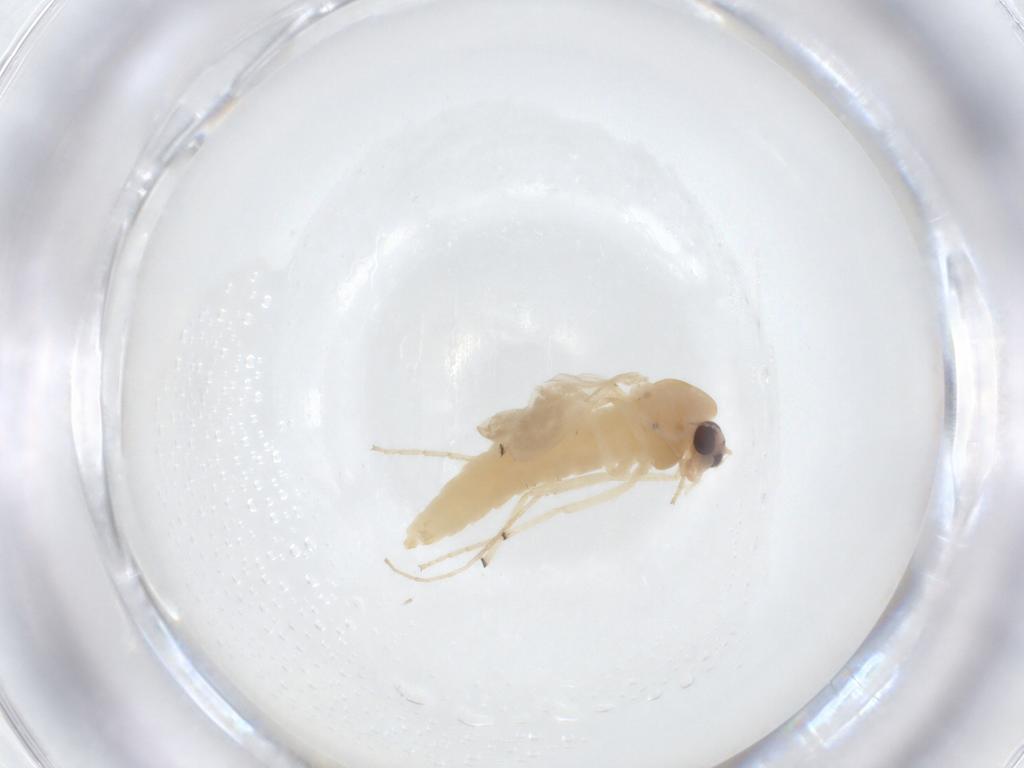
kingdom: Animalia
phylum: Arthropoda
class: Insecta
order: Diptera
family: Chironomidae
